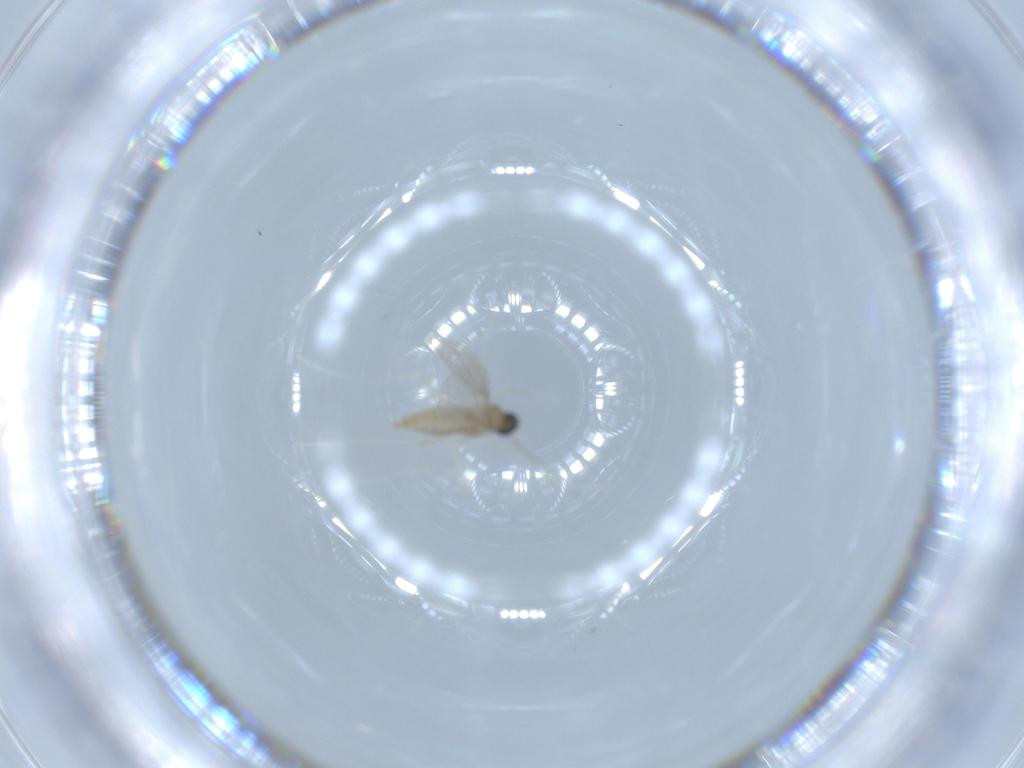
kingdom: Animalia
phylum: Arthropoda
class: Insecta
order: Diptera
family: Cecidomyiidae
